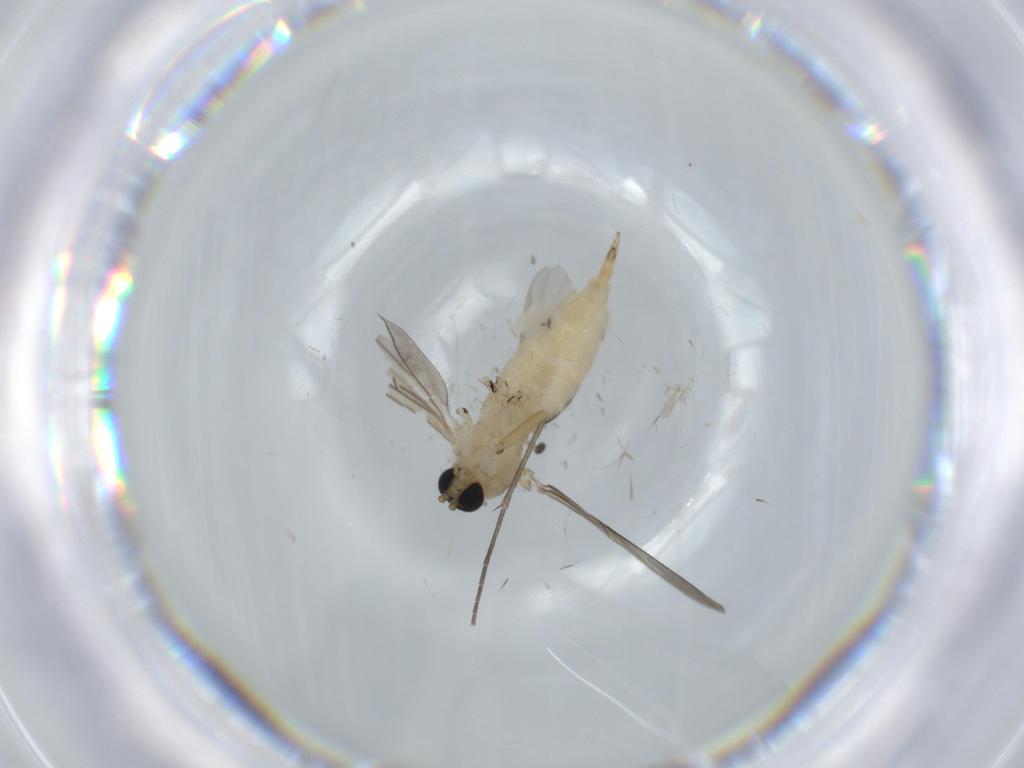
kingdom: Animalia
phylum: Arthropoda
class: Insecta
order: Diptera
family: Sciaridae
